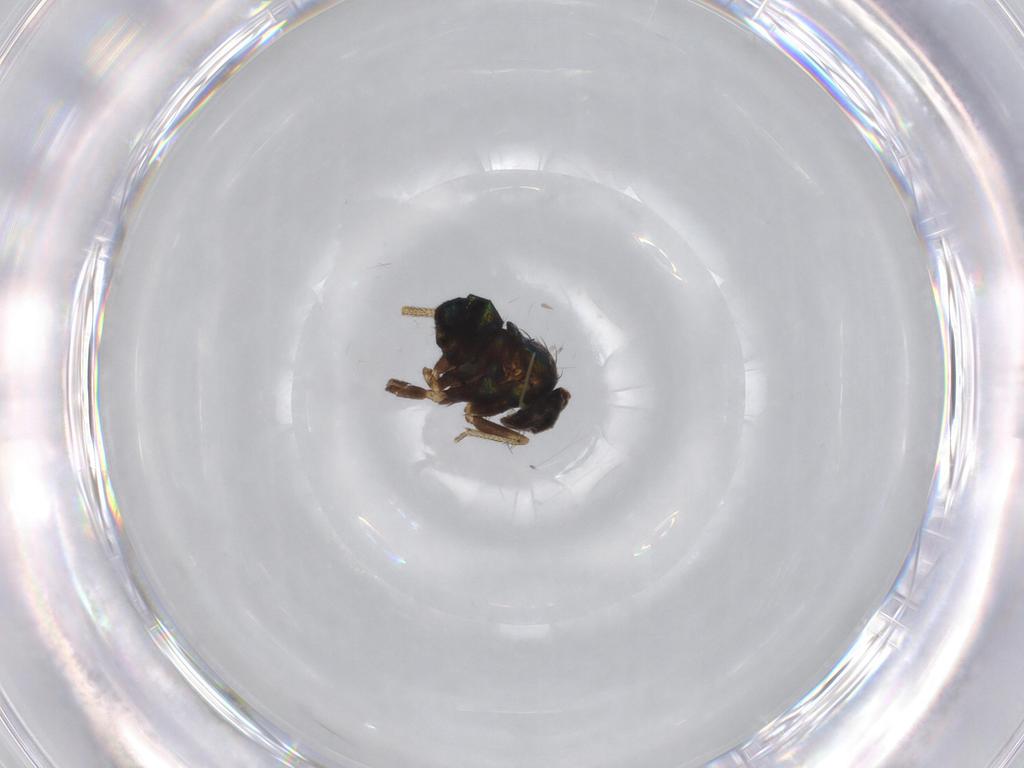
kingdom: Animalia
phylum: Arthropoda
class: Insecta
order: Diptera
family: Dolichopodidae
